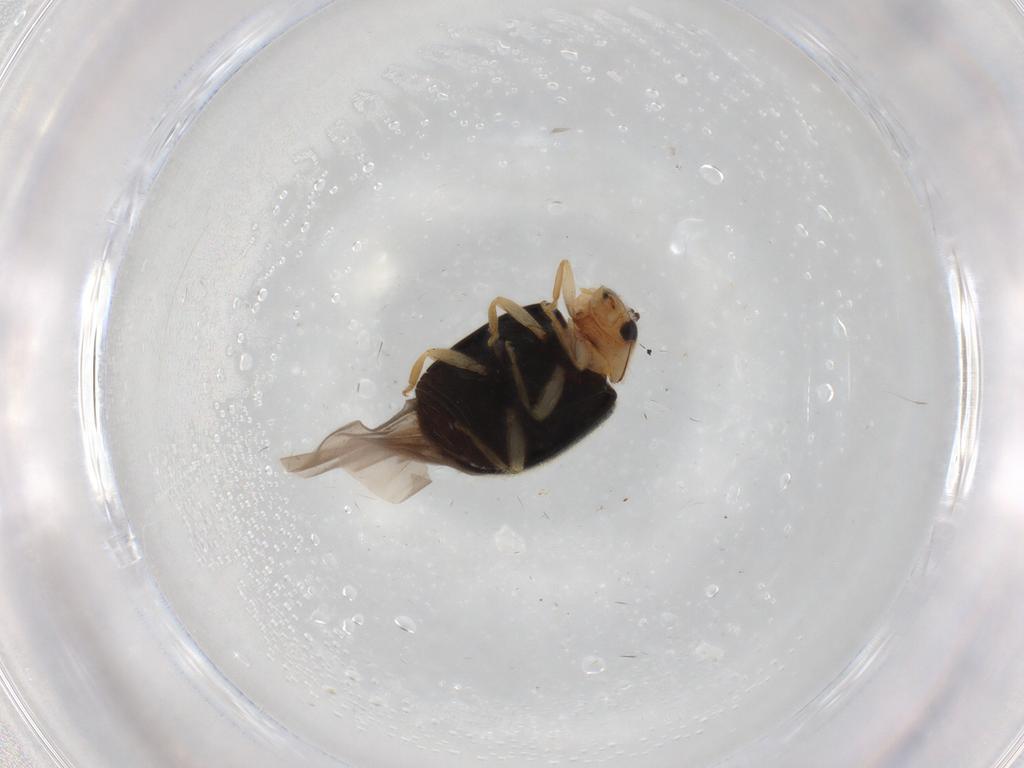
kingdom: Animalia
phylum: Arthropoda
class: Insecta
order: Coleoptera
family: Coccinellidae
